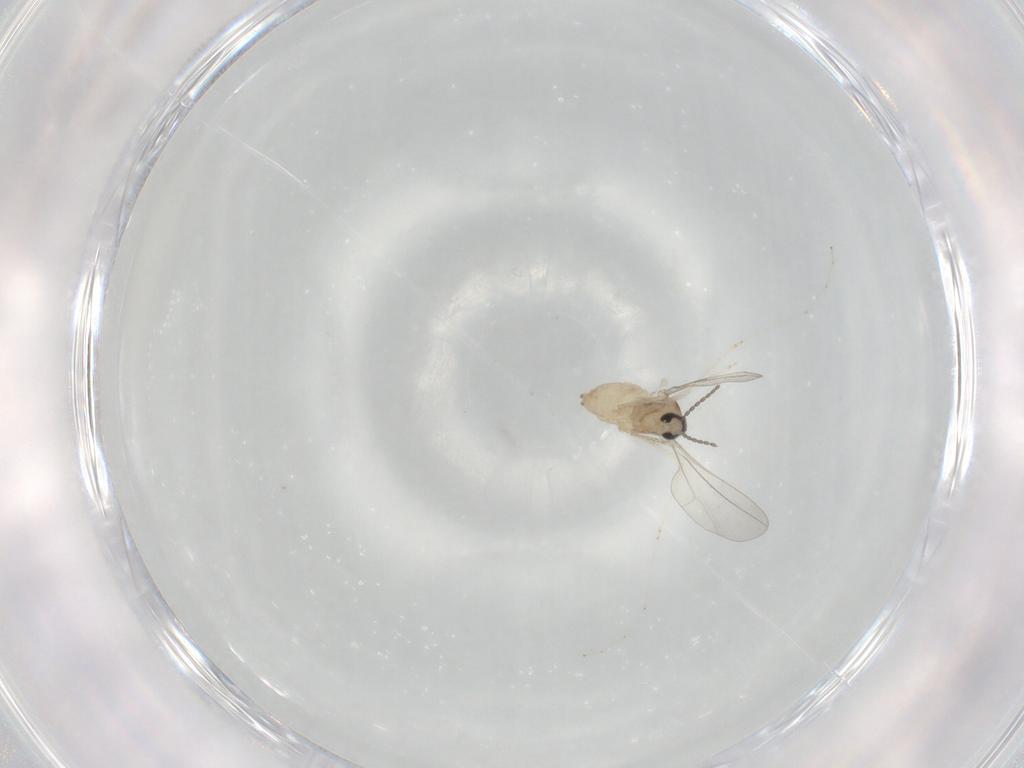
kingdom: Animalia
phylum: Arthropoda
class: Insecta
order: Diptera
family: Cecidomyiidae
